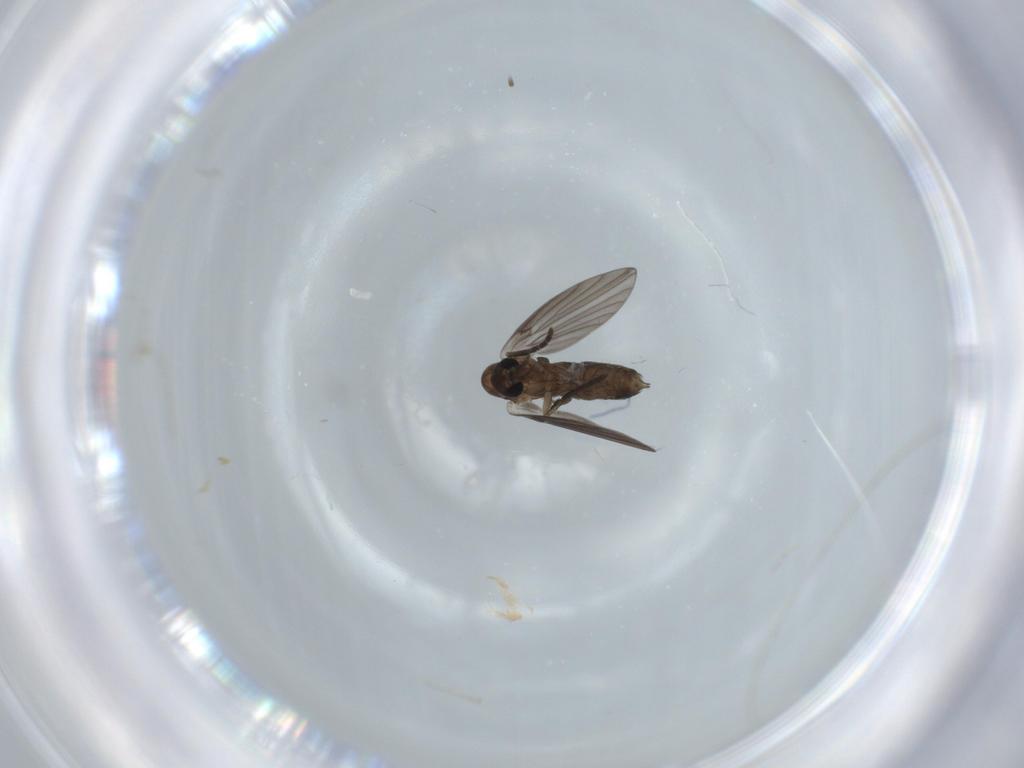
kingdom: Animalia
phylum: Arthropoda
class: Insecta
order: Diptera
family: Psychodidae
